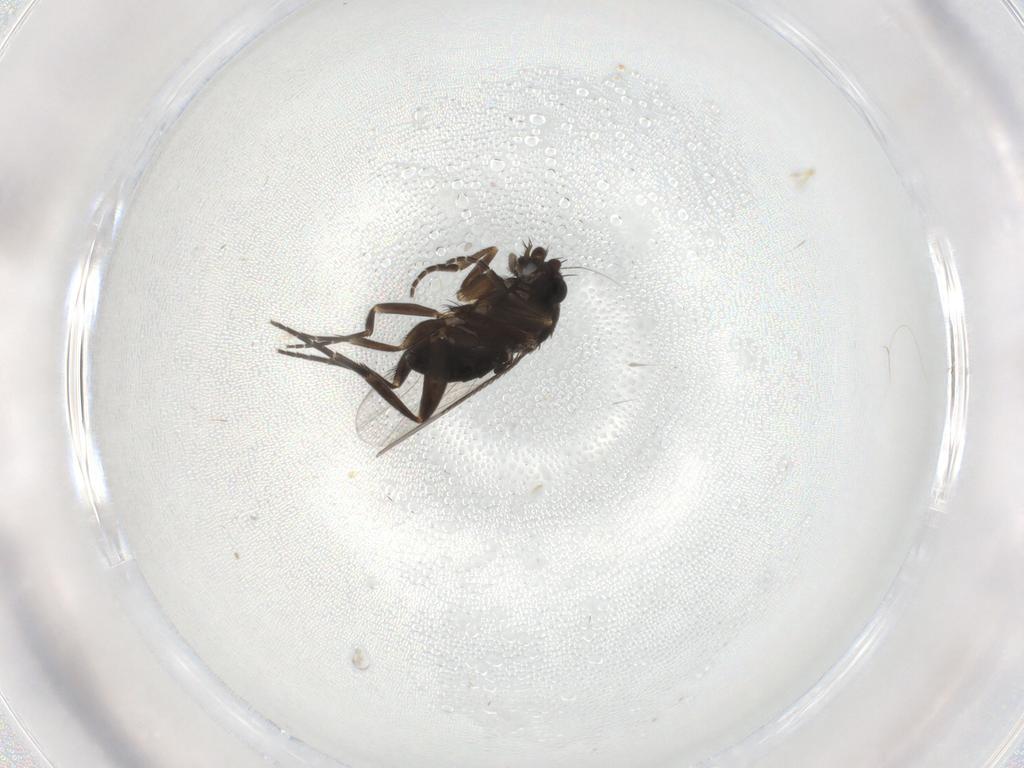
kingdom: Animalia
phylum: Arthropoda
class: Insecta
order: Diptera
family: Phoridae
